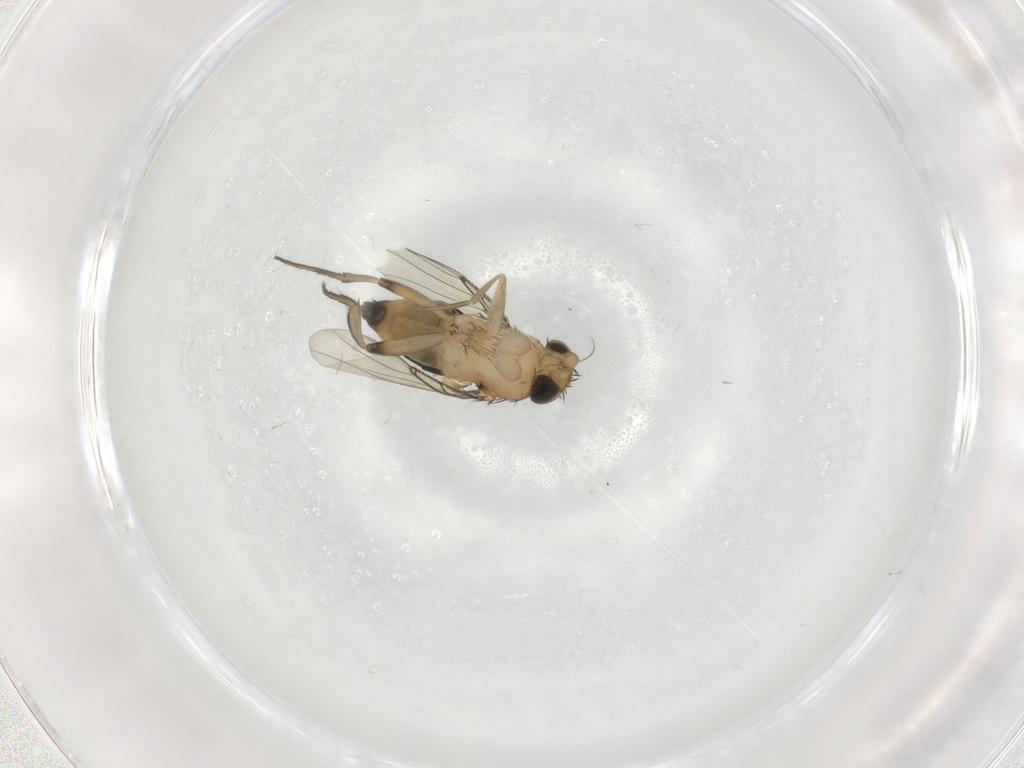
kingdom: Animalia
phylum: Arthropoda
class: Insecta
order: Diptera
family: Phoridae
